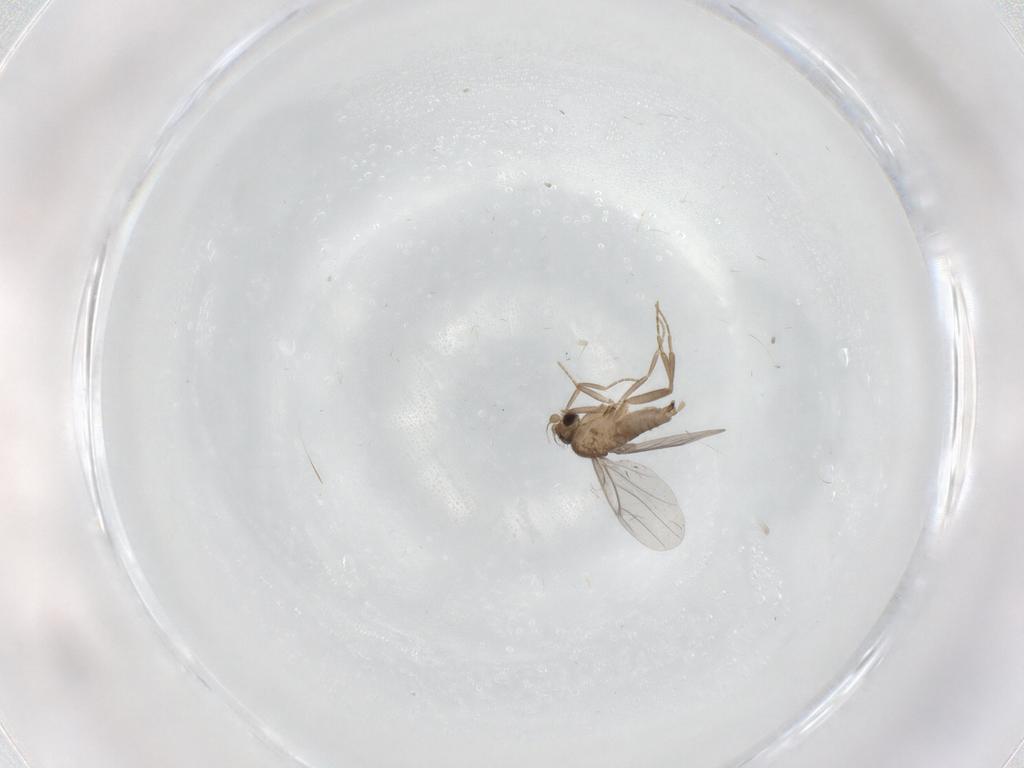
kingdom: Animalia
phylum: Arthropoda
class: Insecta
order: Diptera
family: Chironomidae
